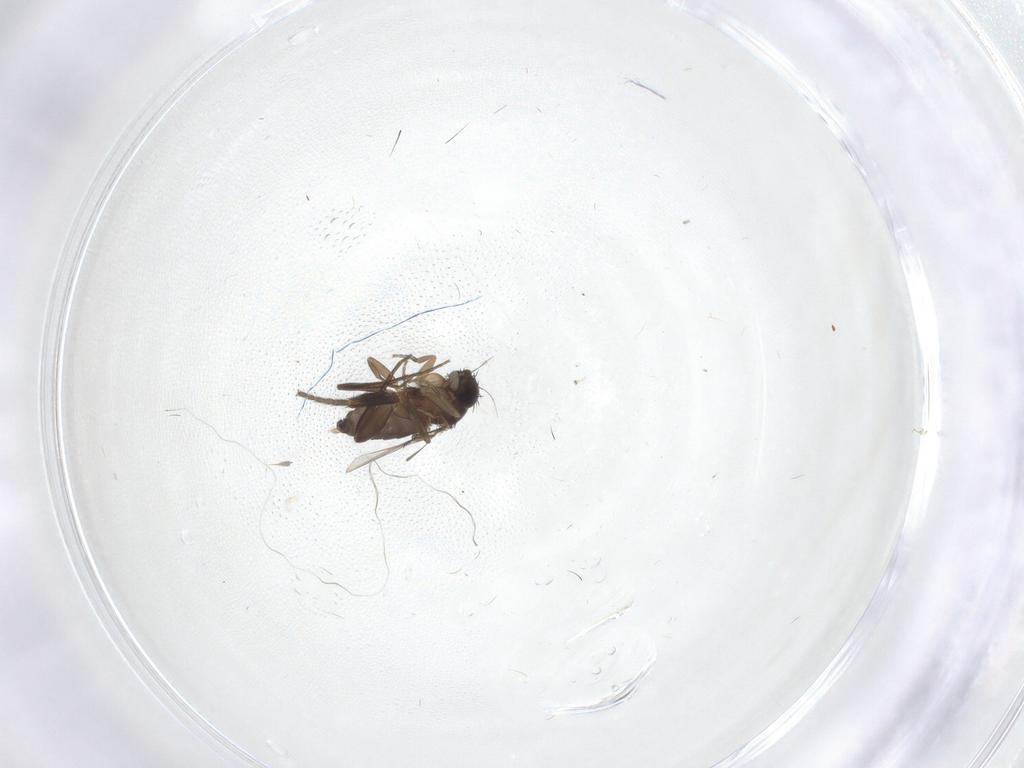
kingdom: Animalia
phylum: Arthropoda
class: Insecta
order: Diptera
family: Phoridae
